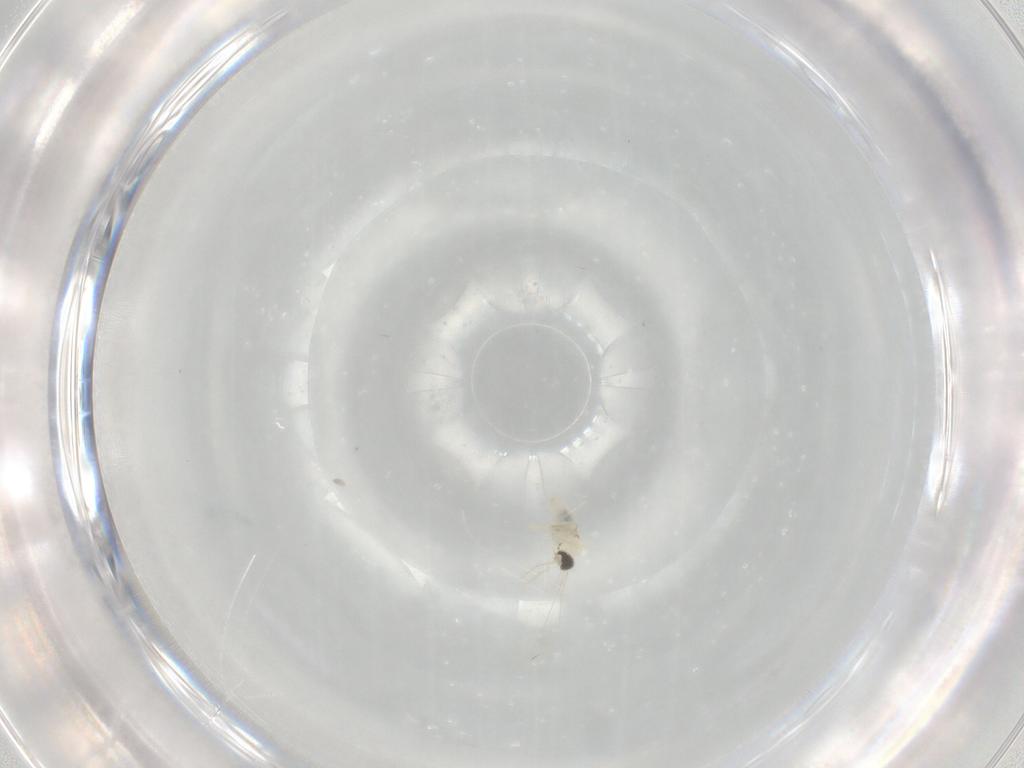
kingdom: Animalia
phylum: Arthropoda
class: Insecta
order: Diptera
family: Cecidomyiidae
